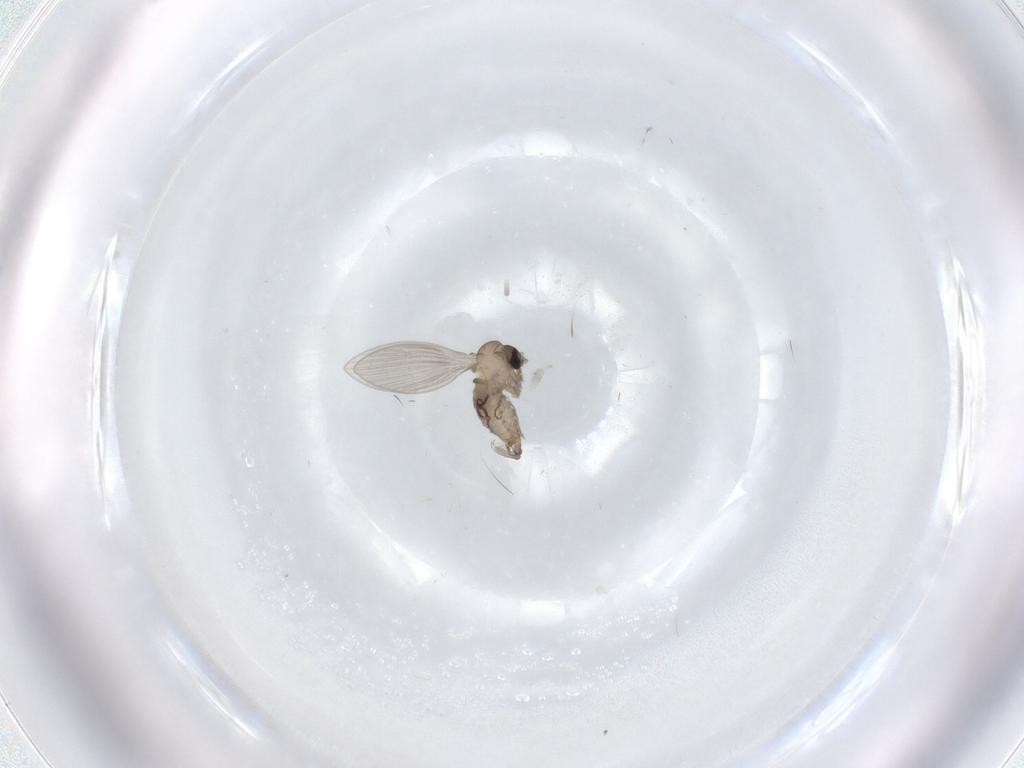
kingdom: Animalia
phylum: Arthropoda
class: Insecta
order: Diptera
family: Psychodidae
